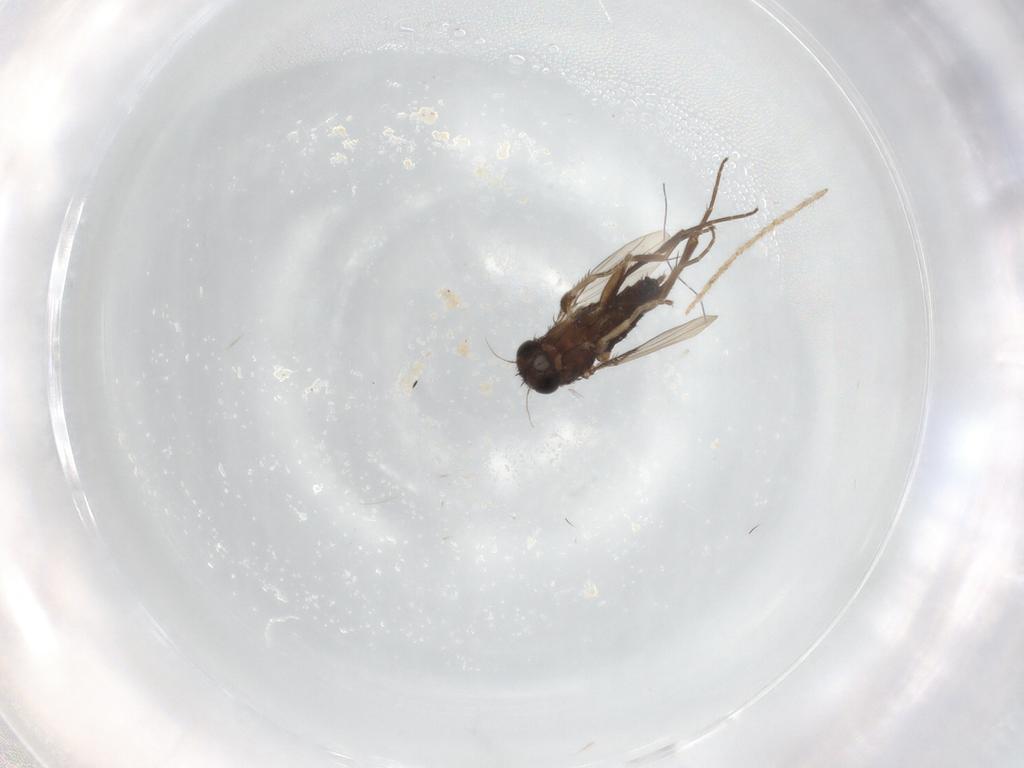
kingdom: Animalia
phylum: Arthropoda
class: Insecta
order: Diptera
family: Phoridae
